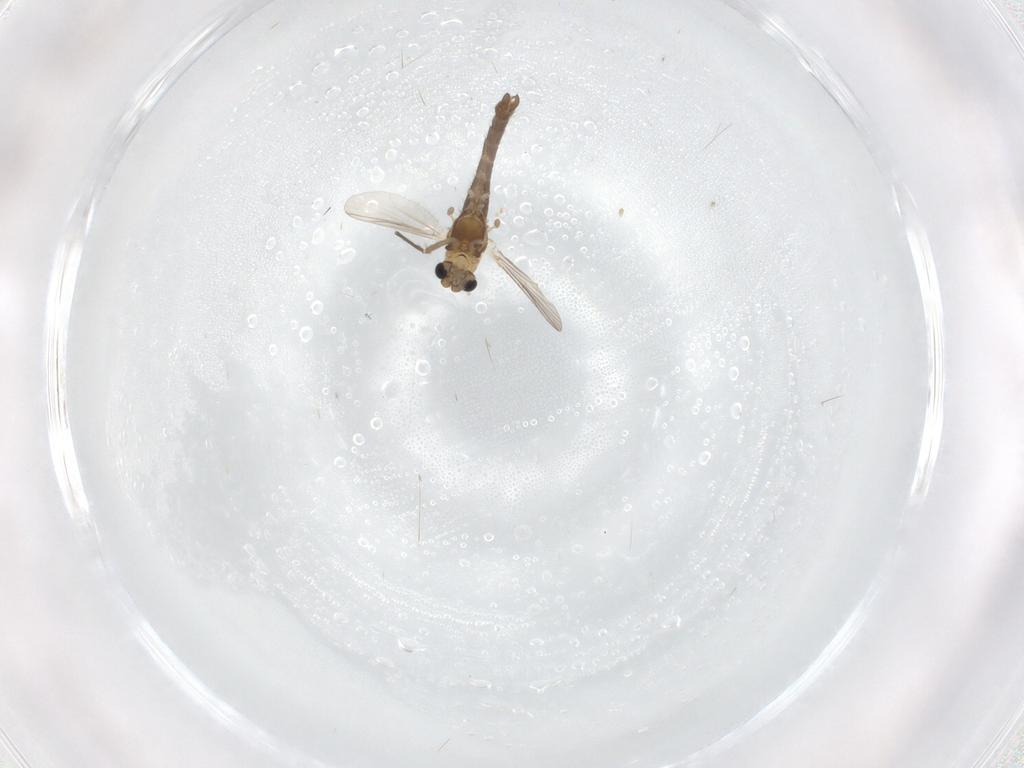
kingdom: Animalia
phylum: Arthropoda
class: Insecta
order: Diptera
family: Chironomidae
